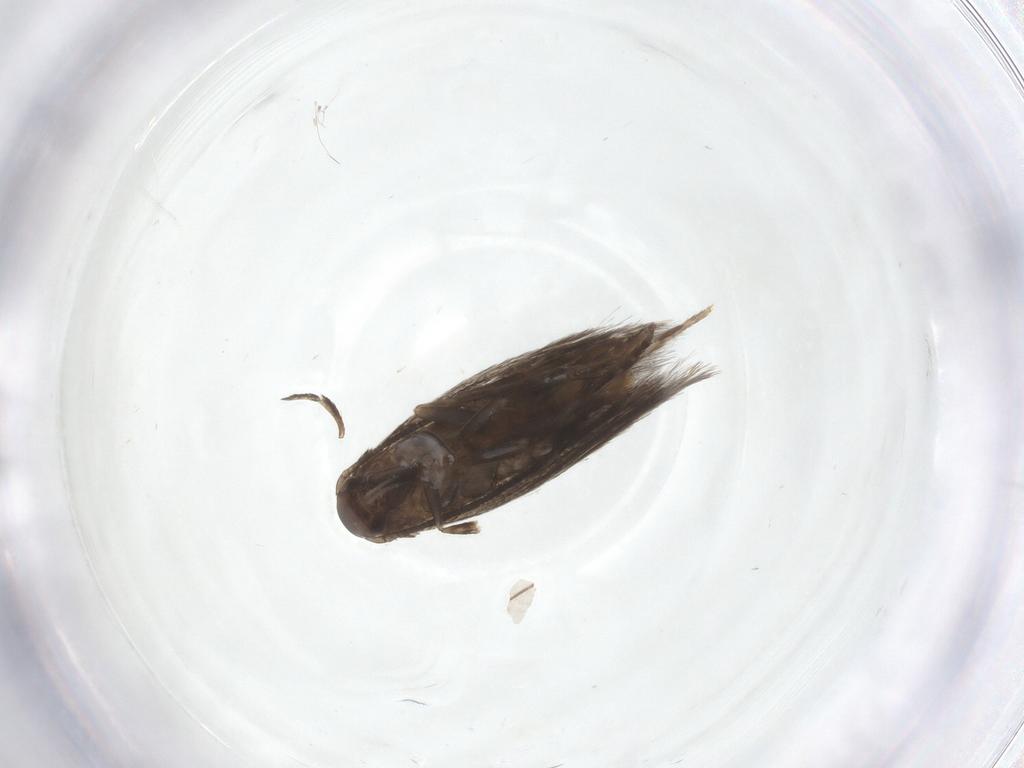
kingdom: Animalia
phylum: Arthropoda
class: Insecta
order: Lepidoptera
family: Elachistidae
